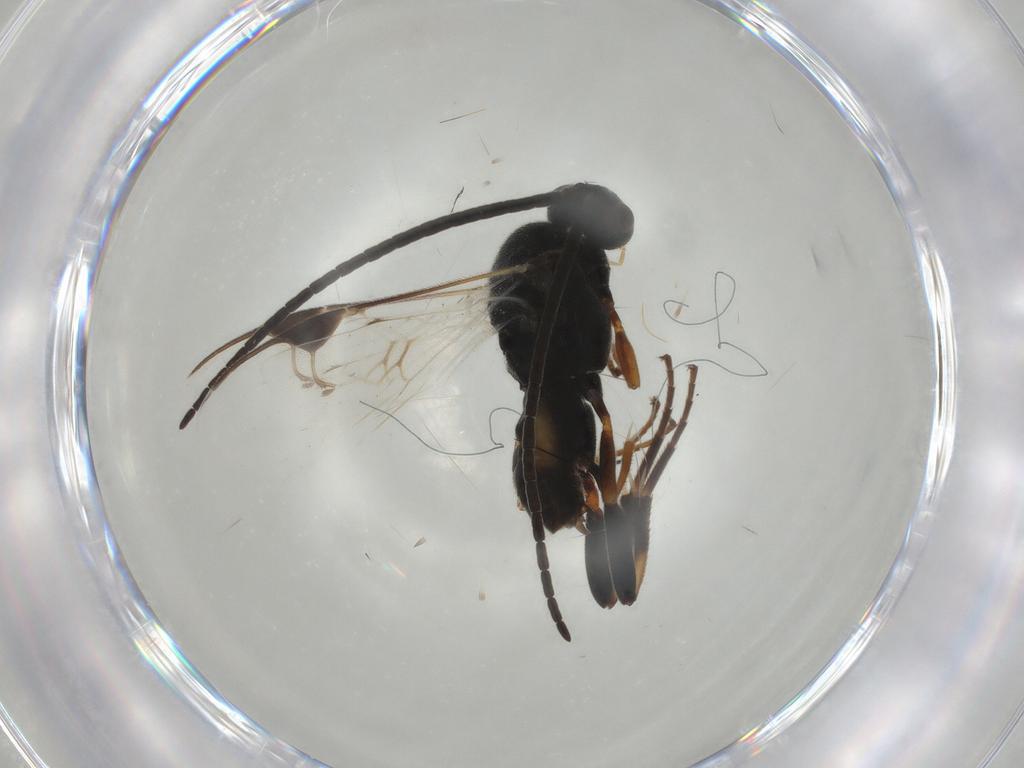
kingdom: Animalia
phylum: Arthropoda
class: Insecta
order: Hymenoptera
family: Braconidae
